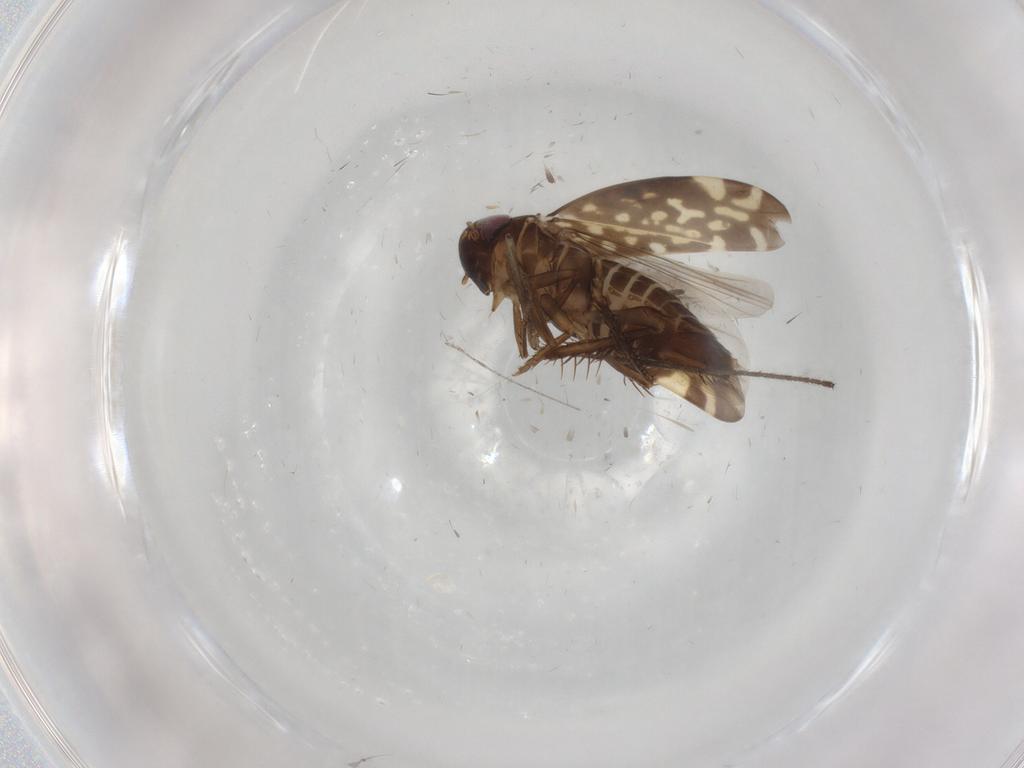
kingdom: Animalia
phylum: Arthropoda
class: Insecta
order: Hemiptera
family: Cicadellidae
